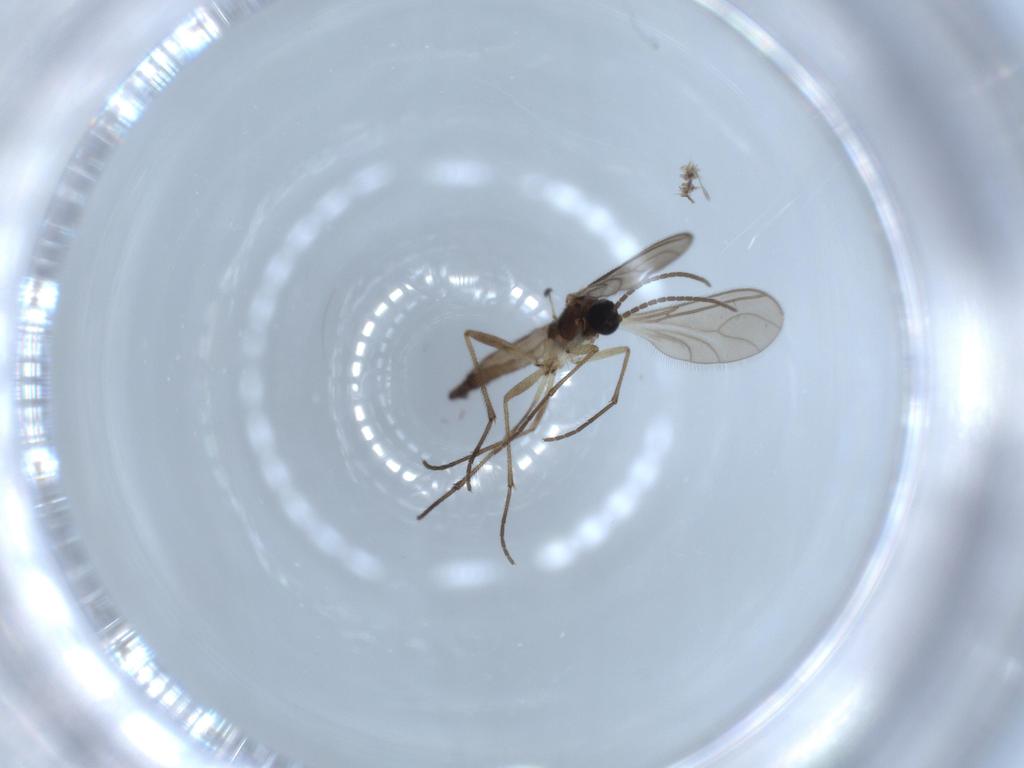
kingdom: Animalia
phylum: Arthropoda
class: Insecta
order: Diptera
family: Sciaridae
